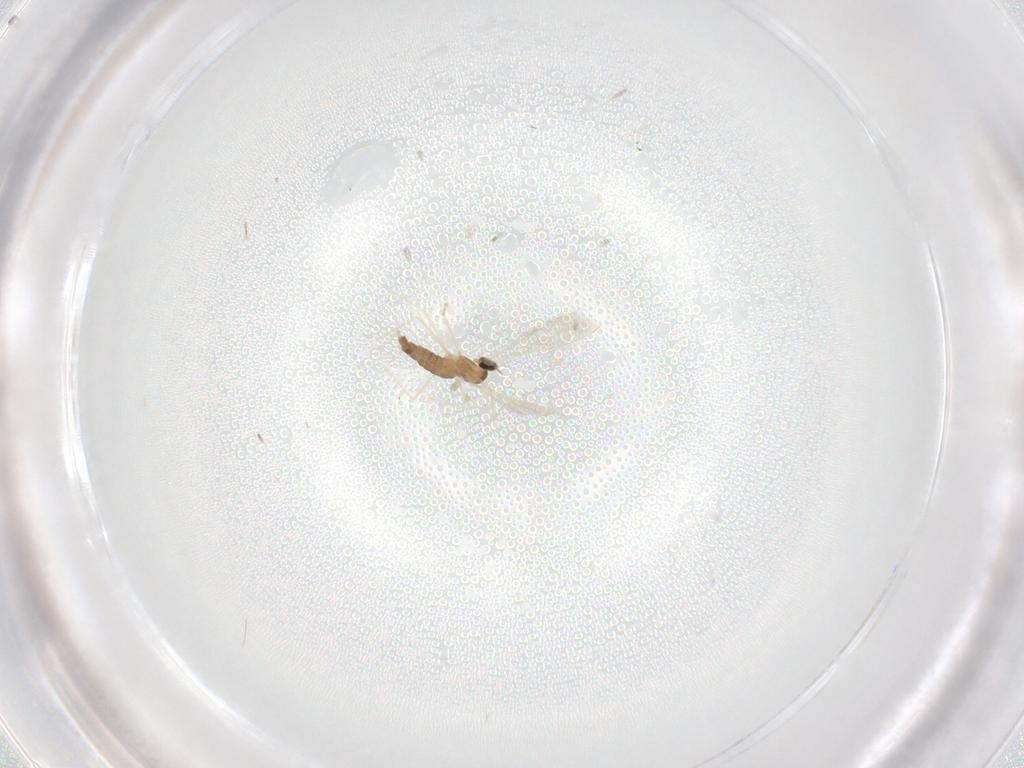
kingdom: Animalia
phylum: Arthropoda
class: Insecta
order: Diptera
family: Cecidomyiidae
